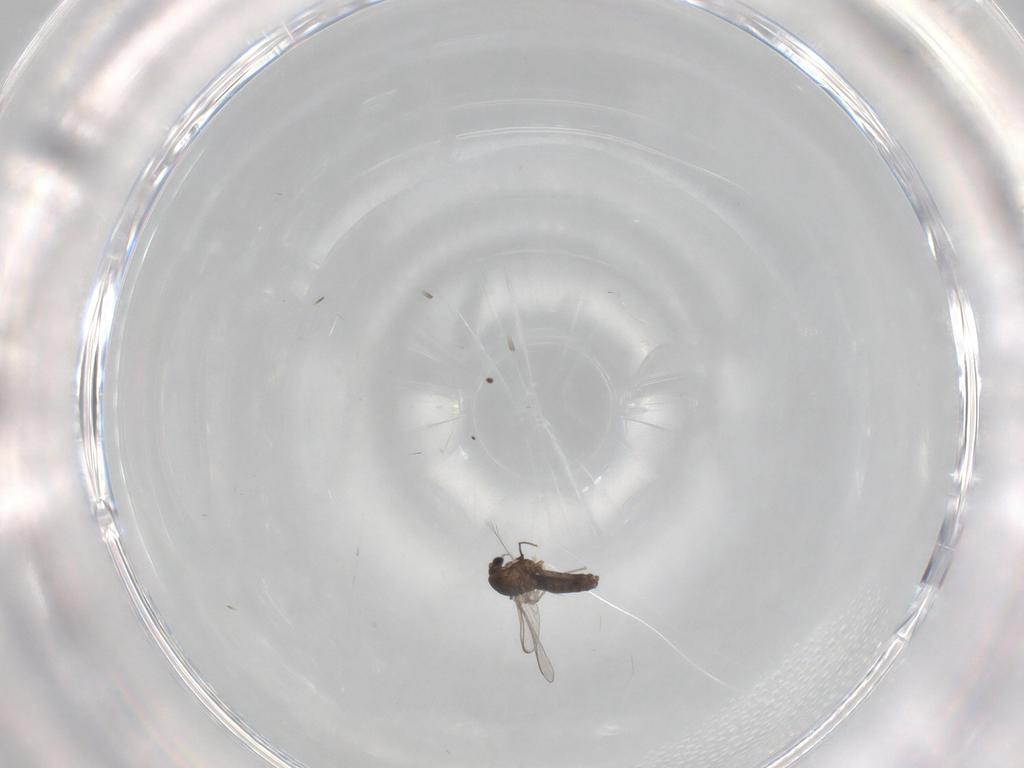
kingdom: Animalia
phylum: Arthropoda
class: Insecta
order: Diptera
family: Chironomidae
